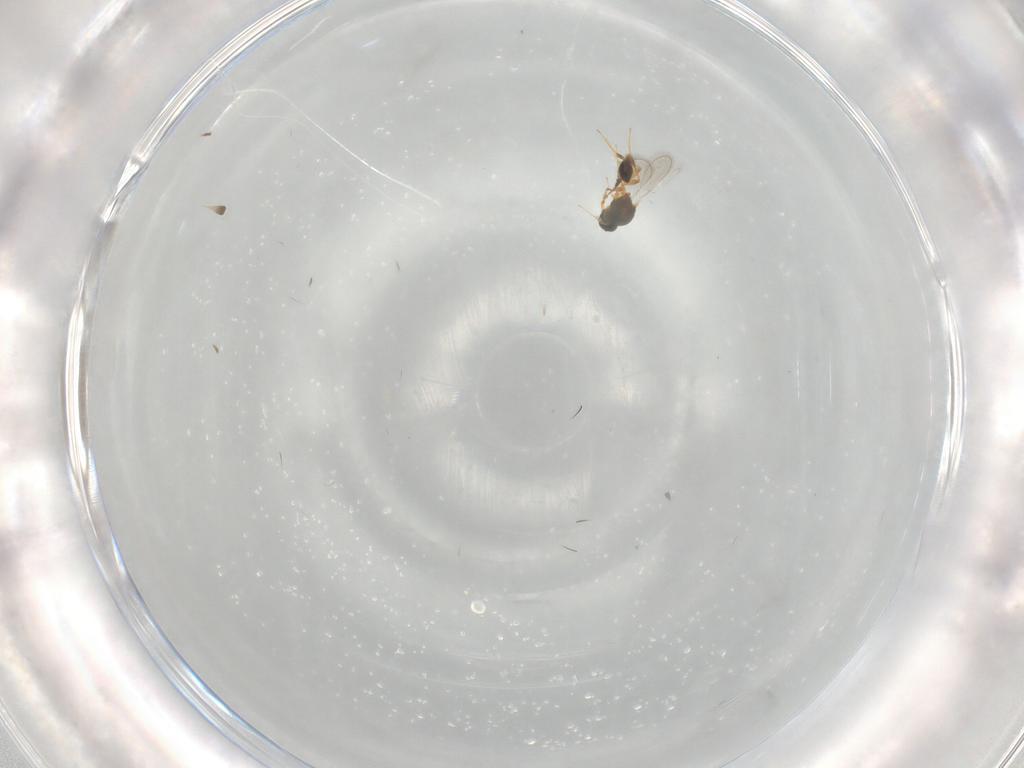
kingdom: Animalia
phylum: Arthropoda
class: Insecta
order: Hymenoptera
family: Platygastridae
